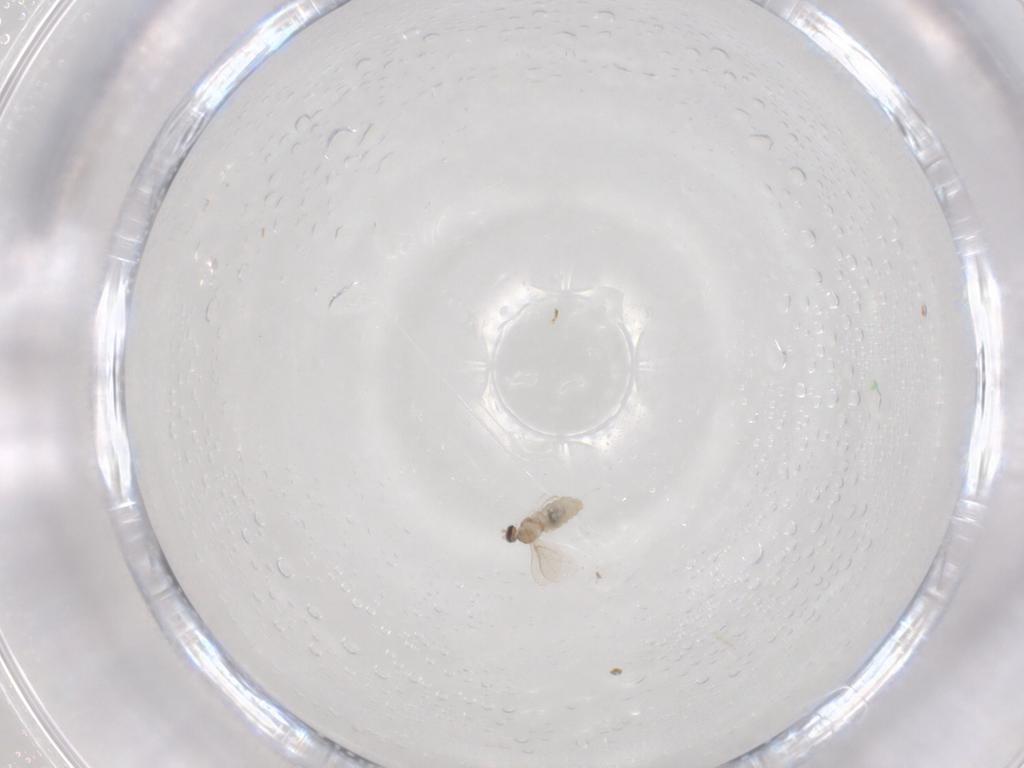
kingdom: Animalia
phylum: Arthropoda
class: Insecta
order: Diptera
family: Cecidomyiidae
